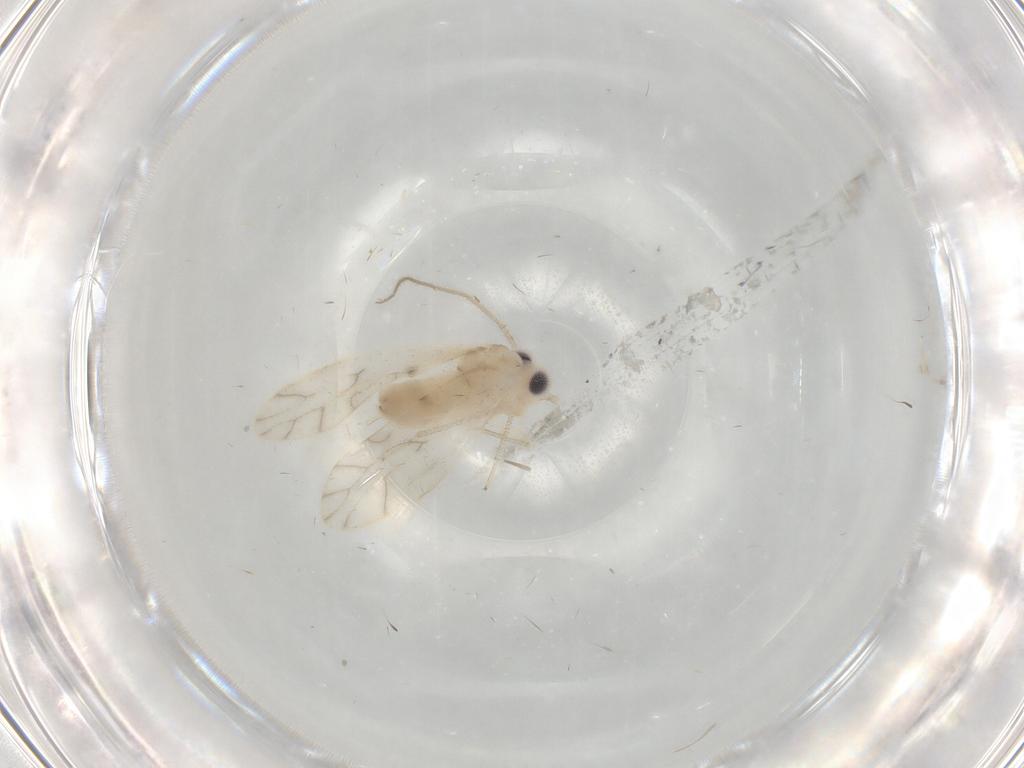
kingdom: Animalia
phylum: Arthropoda
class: Insecta
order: Psocodea
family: Caeciliusidae
